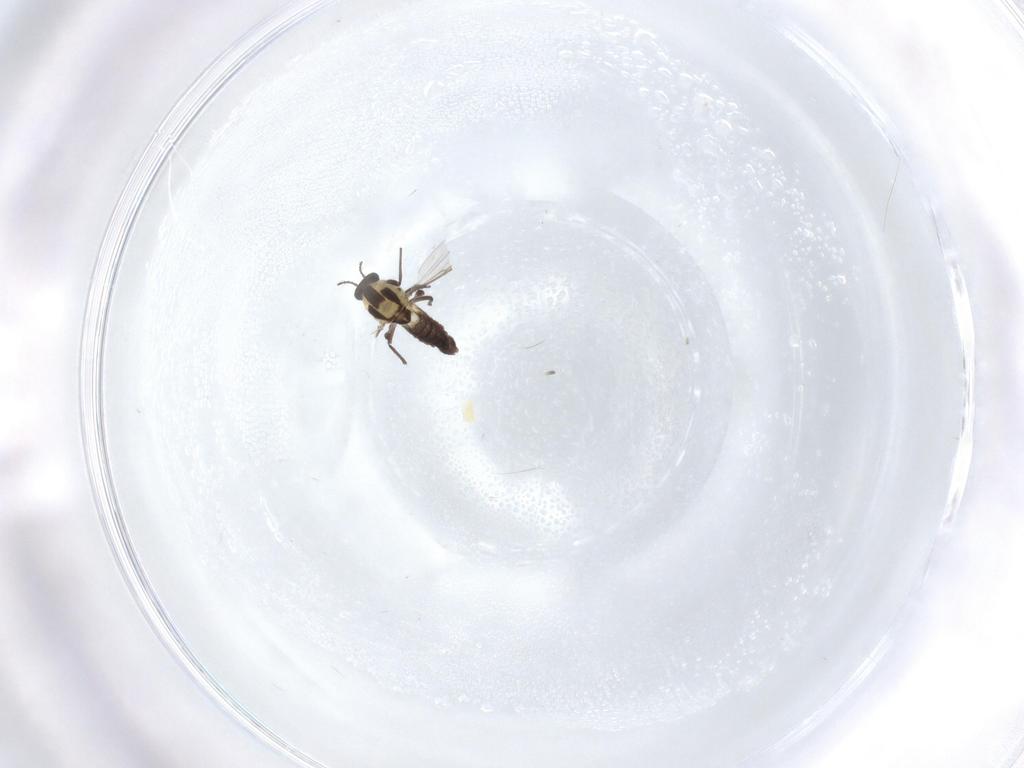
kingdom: Animalia
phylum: Arthropoda
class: Insecta
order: Diptera
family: Chironomidae
